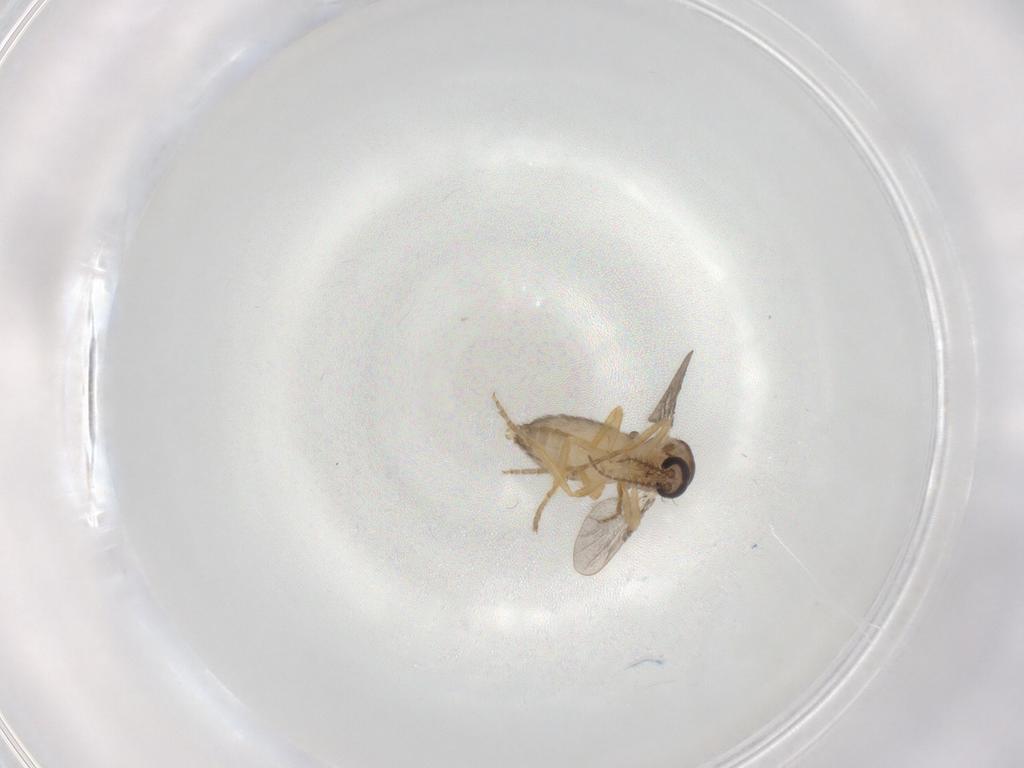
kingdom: Animalia
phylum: Arthropoda
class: Insecta
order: Diptera
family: Ceratopogonidae
